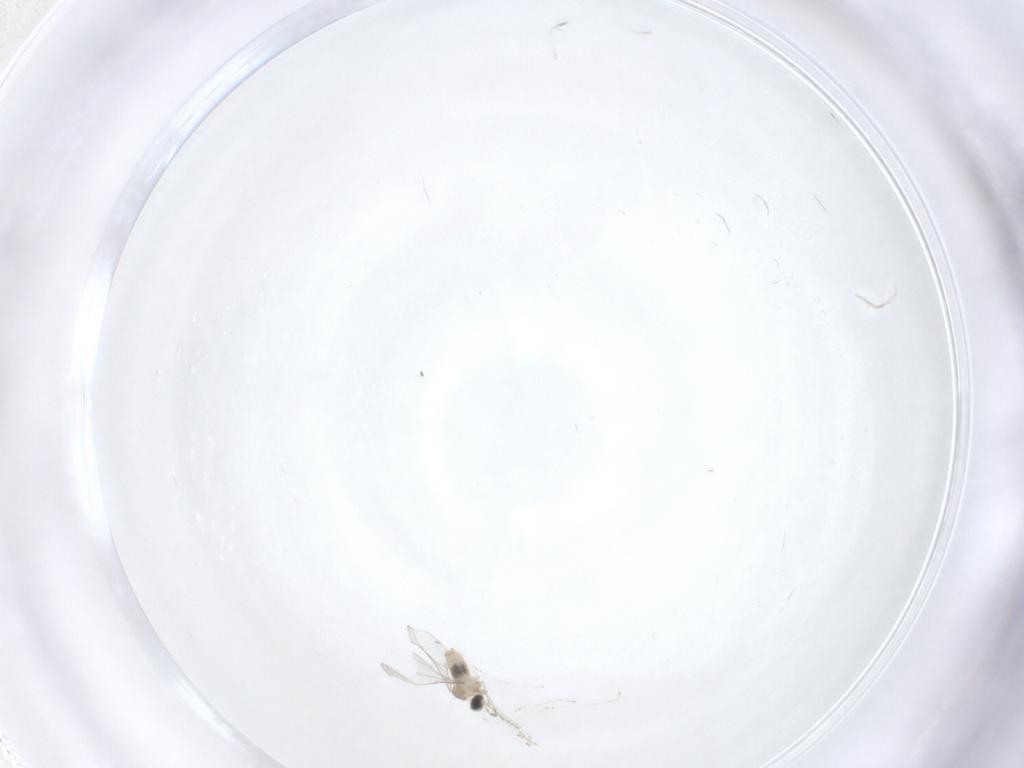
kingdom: Animalia
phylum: Arthropoda
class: Insecta
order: Diptera
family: Cecidomyiidae
